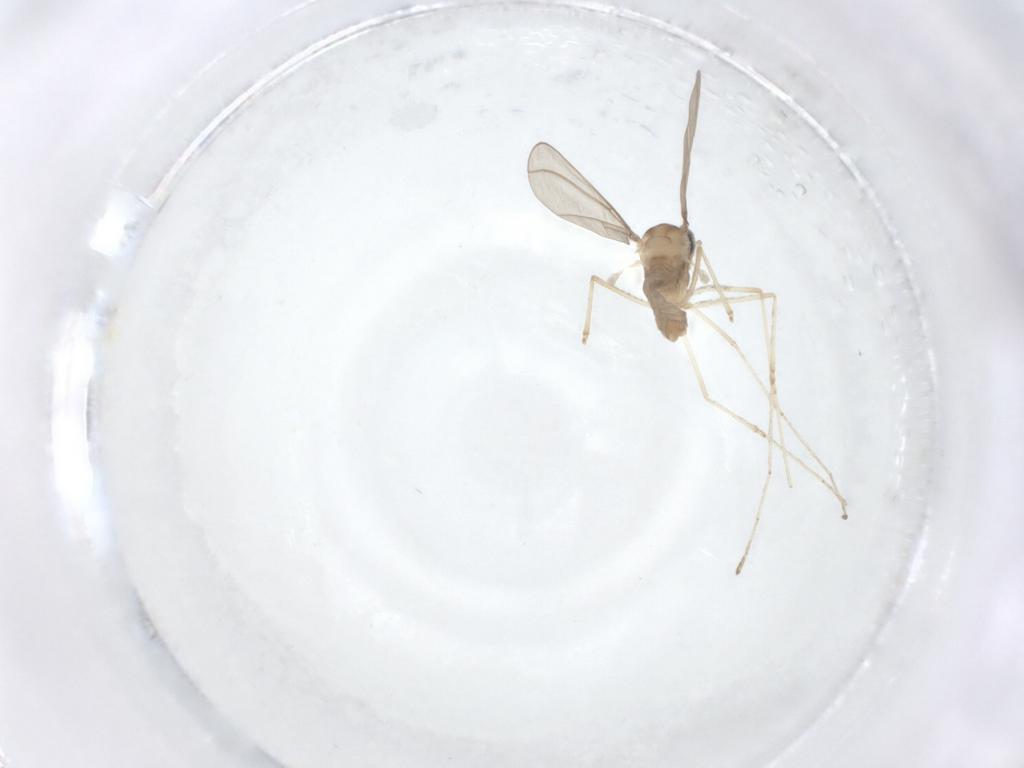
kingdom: Animalia
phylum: Arthropoda
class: Insecta
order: Diptera
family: Cecidomyiidae
